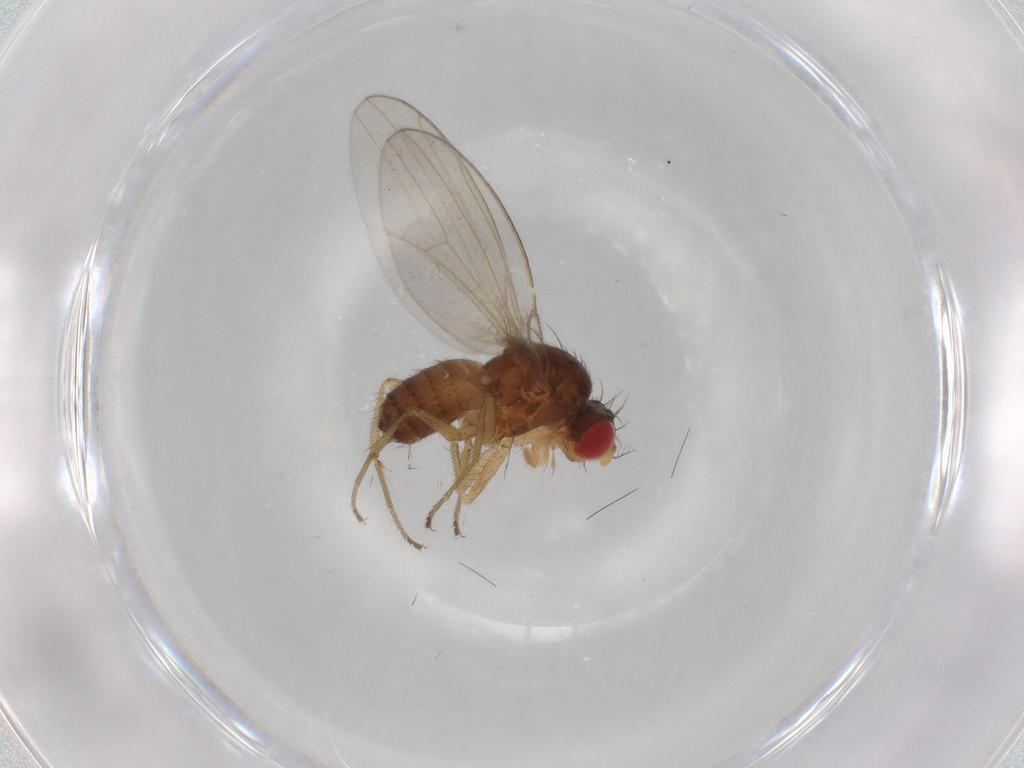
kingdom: Animalia
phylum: Arthropoda
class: Insecta
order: Diptera
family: Drosophilidae
